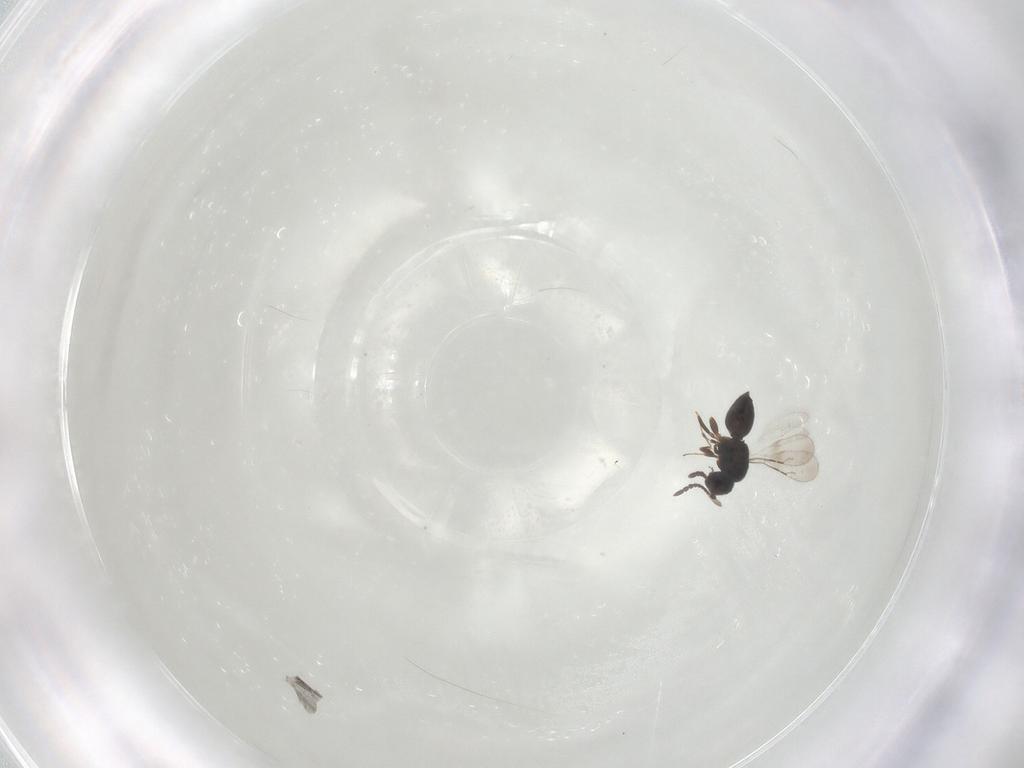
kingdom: Animalia
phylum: Arthropoda
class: Insecta
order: Hymenoptera
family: Diapriidae
